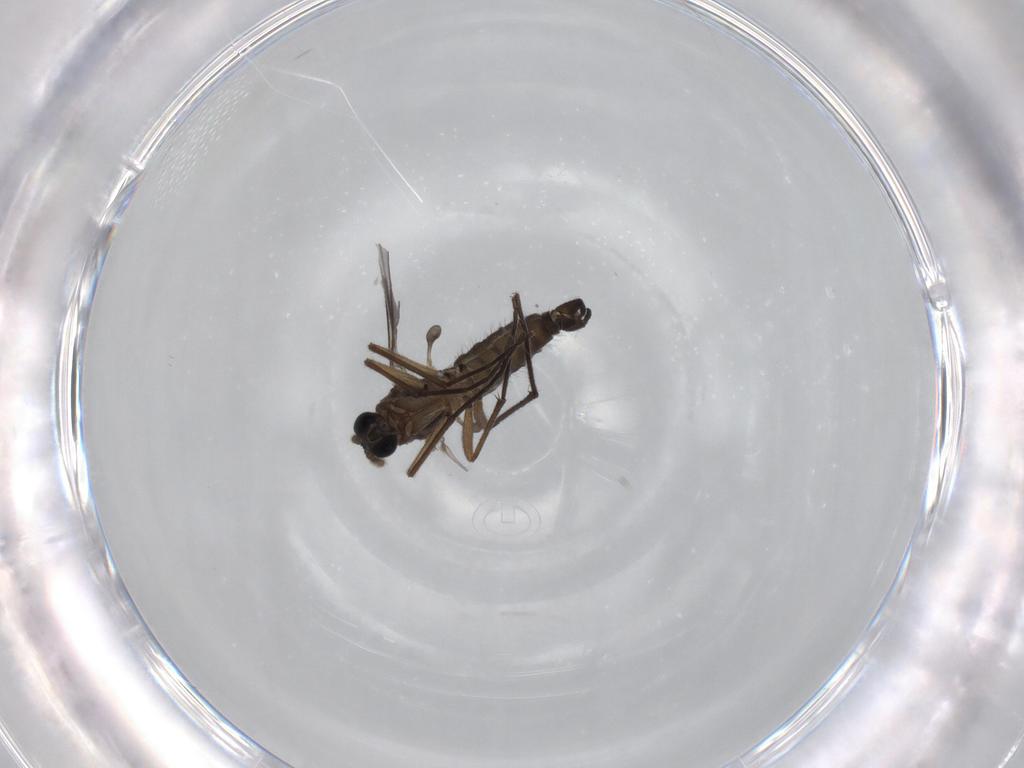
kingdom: Animalia
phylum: Arthropoda
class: Insecta
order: Diptera
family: Sciaridae
